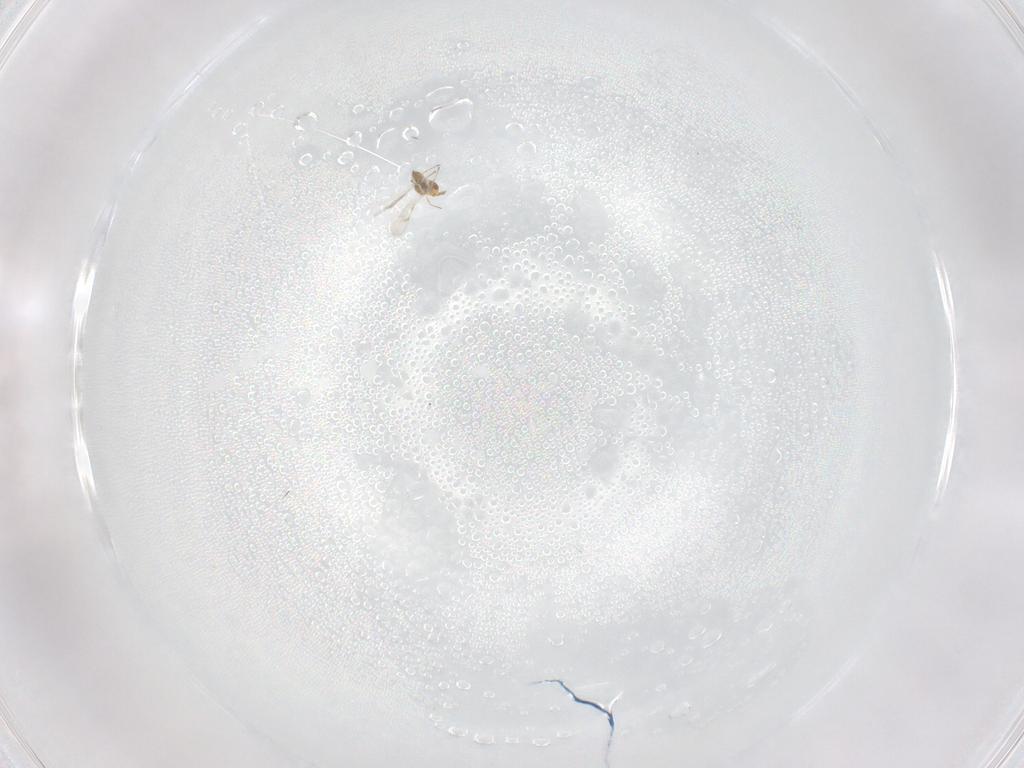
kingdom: Animalia
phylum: Arthropoda
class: Insecta
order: Hymenoptera
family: Eulophidae
